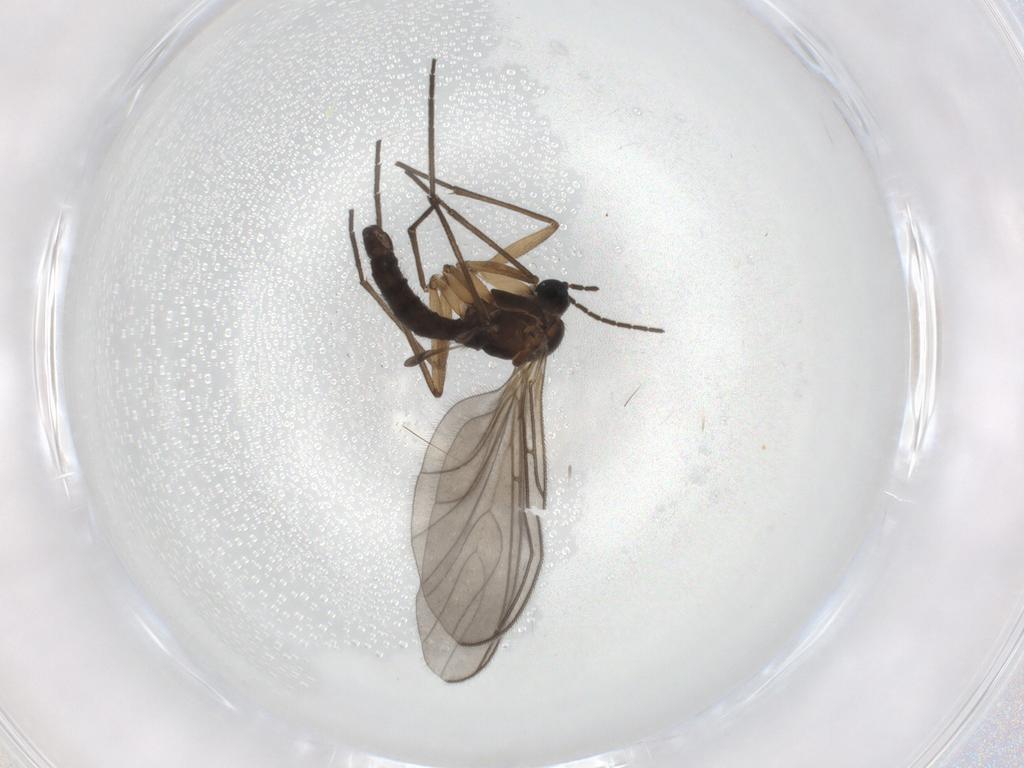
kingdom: Animalia
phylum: Arthropoda
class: Insecta
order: Diptera
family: Sciaridae
